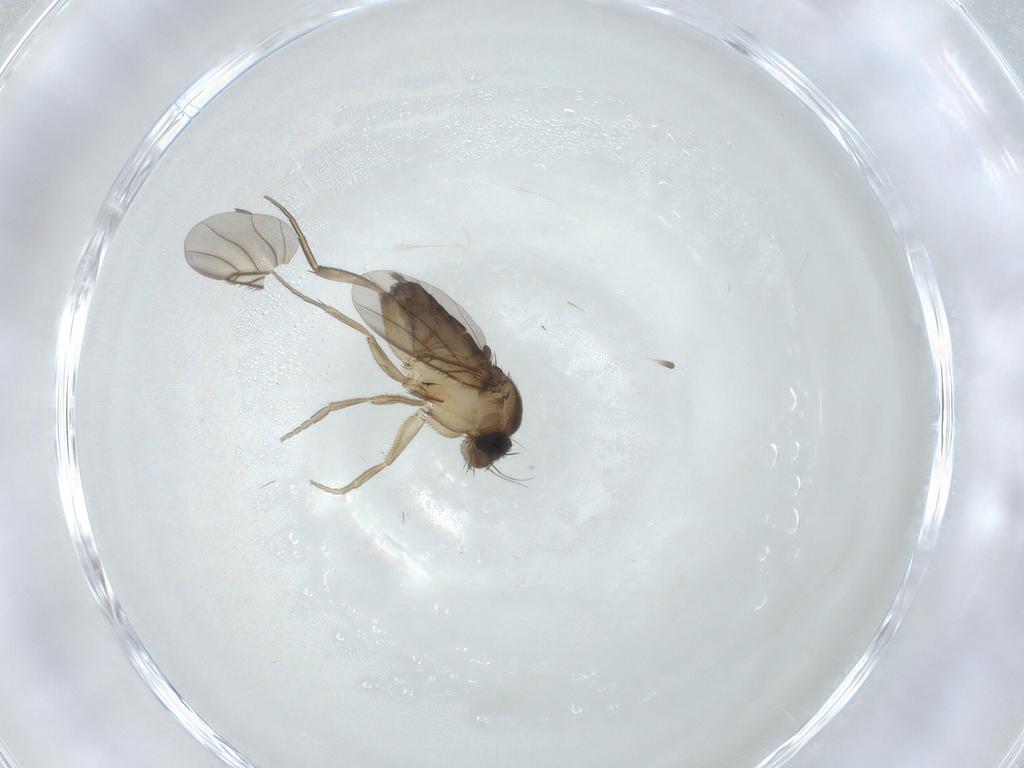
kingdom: Animalia
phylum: Arthropoda
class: Insecta
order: Diptera
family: Phoridae
